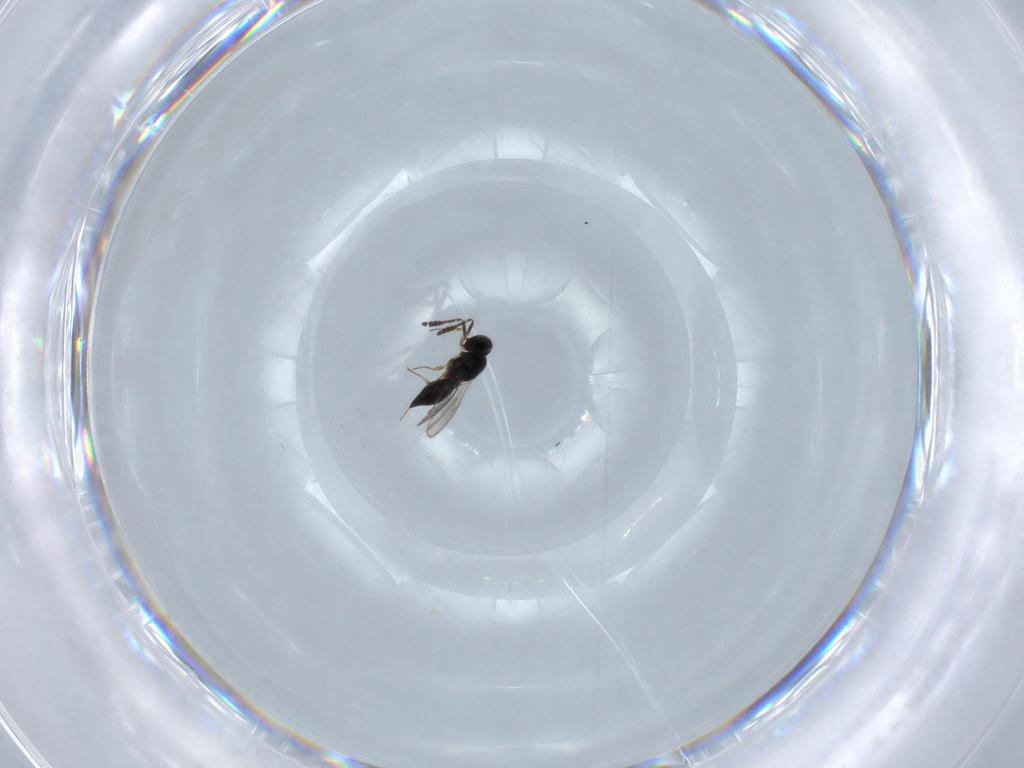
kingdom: Animalia
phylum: Arthropoda
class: Insecta
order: Hymenoptera
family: Scelionidae
